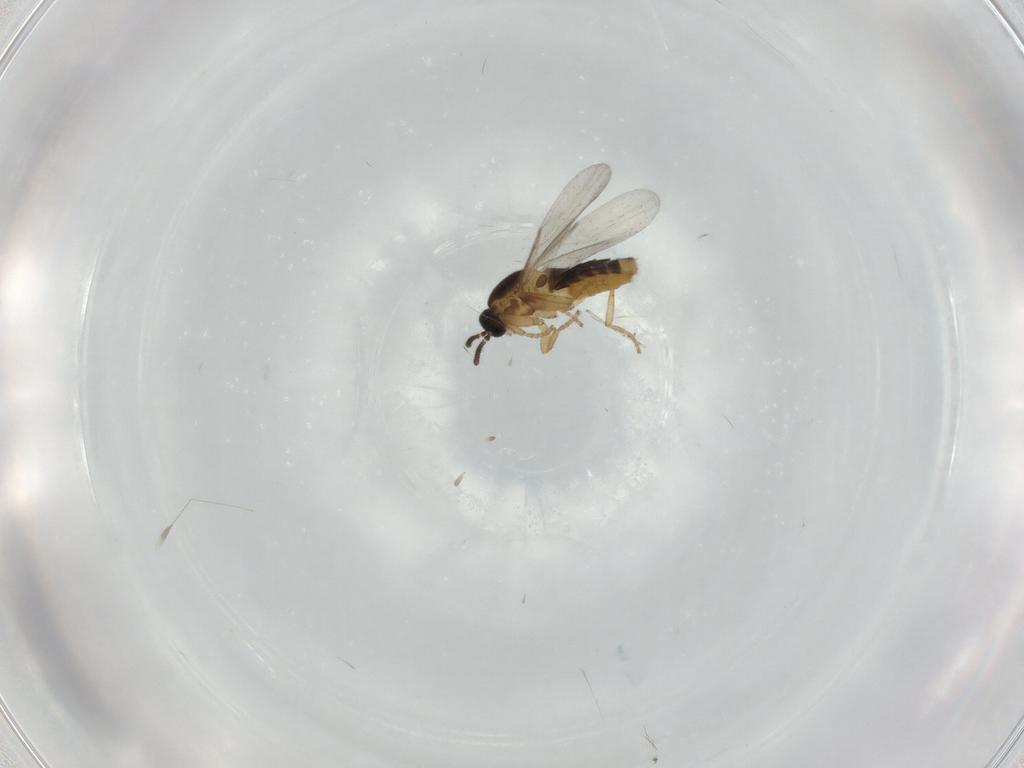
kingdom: Animalia
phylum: Arthropoda
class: Insecta
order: Diptera
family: Scatopsidae
